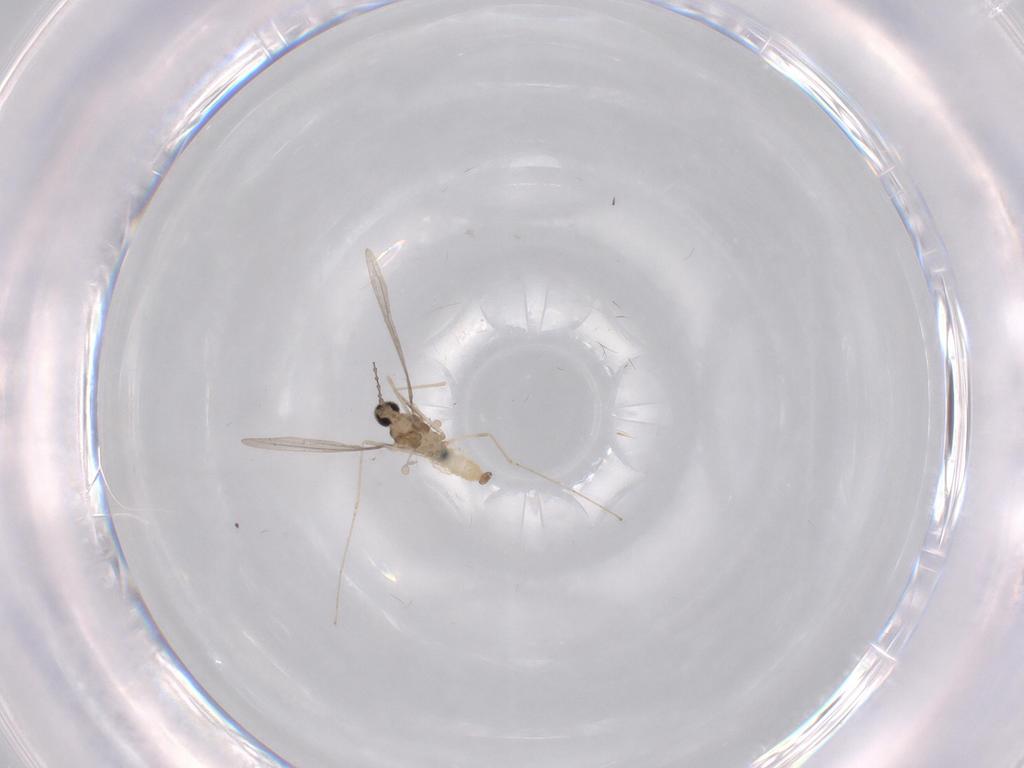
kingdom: Animalia
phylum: Arthropoda
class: Insecta
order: Diptera
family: Cecidomyiidae
